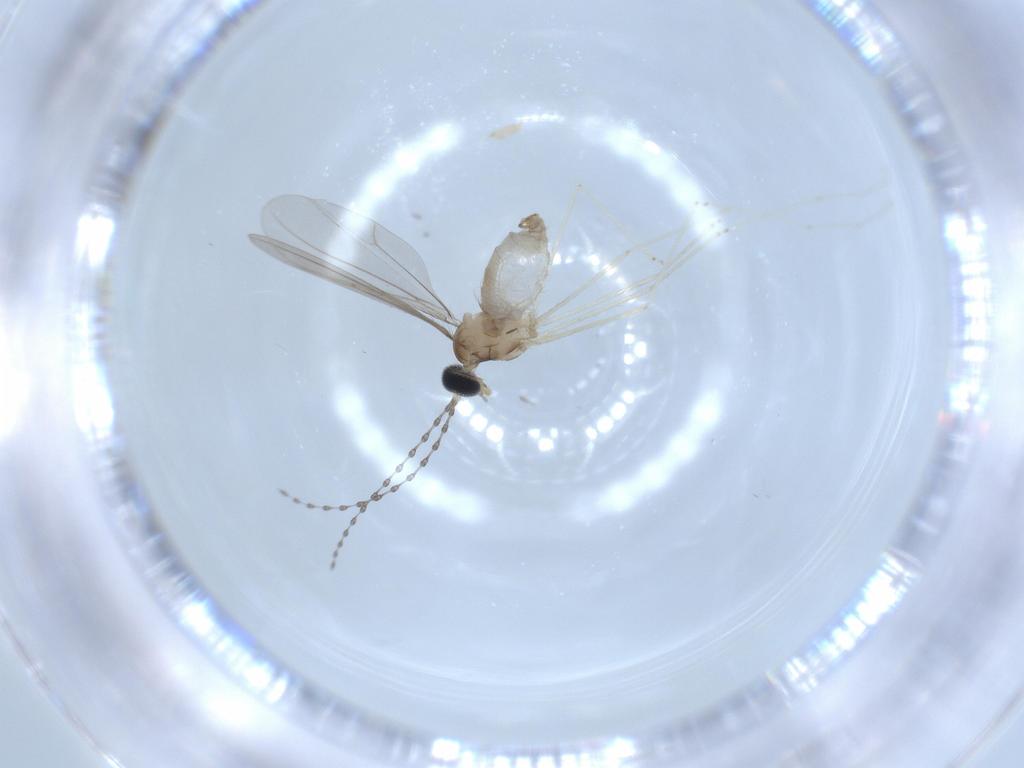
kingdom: Animalia
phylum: Arthropoda
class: Insecta
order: Diptera
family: Cecidomyiidae
